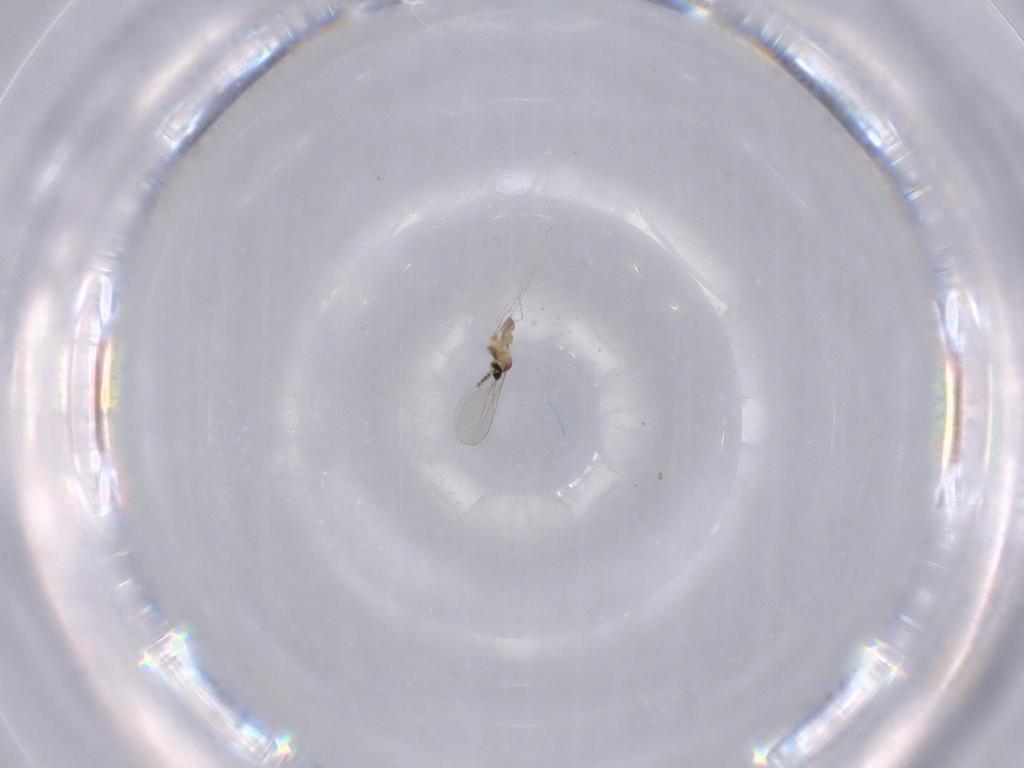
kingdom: Animalia
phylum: Arthropoda
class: Insecta
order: Diptera
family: Cecidomyiidae
